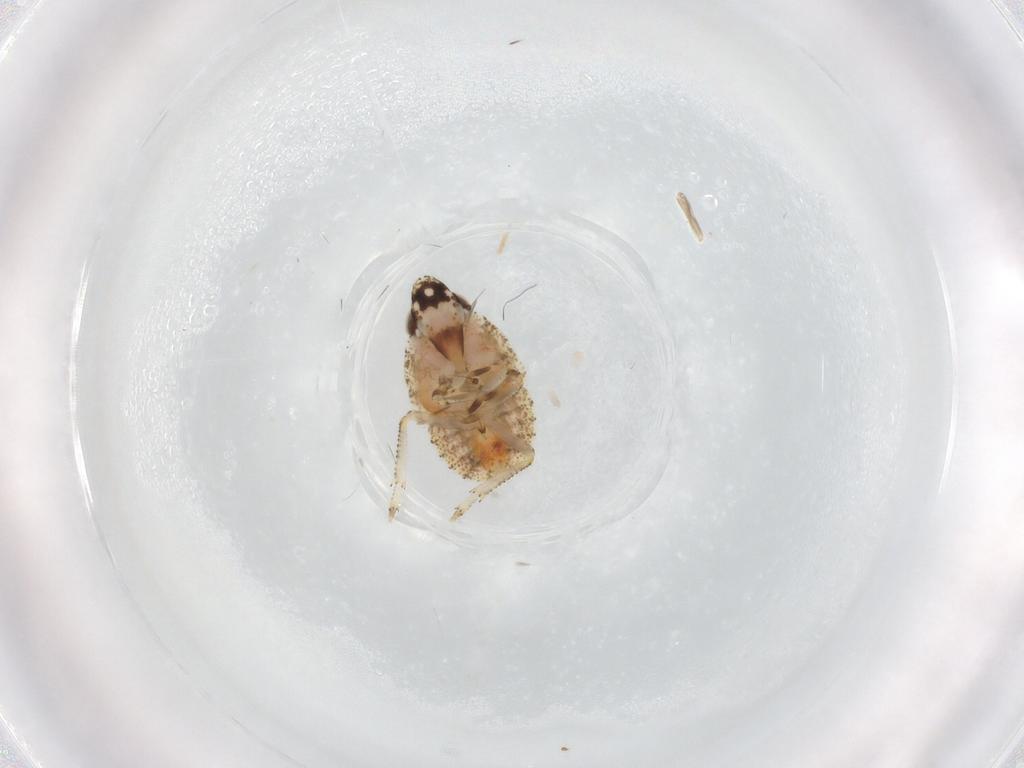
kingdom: Animalia
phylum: Arthropoda
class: Insecta
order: Hemiptera
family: Gengidae
